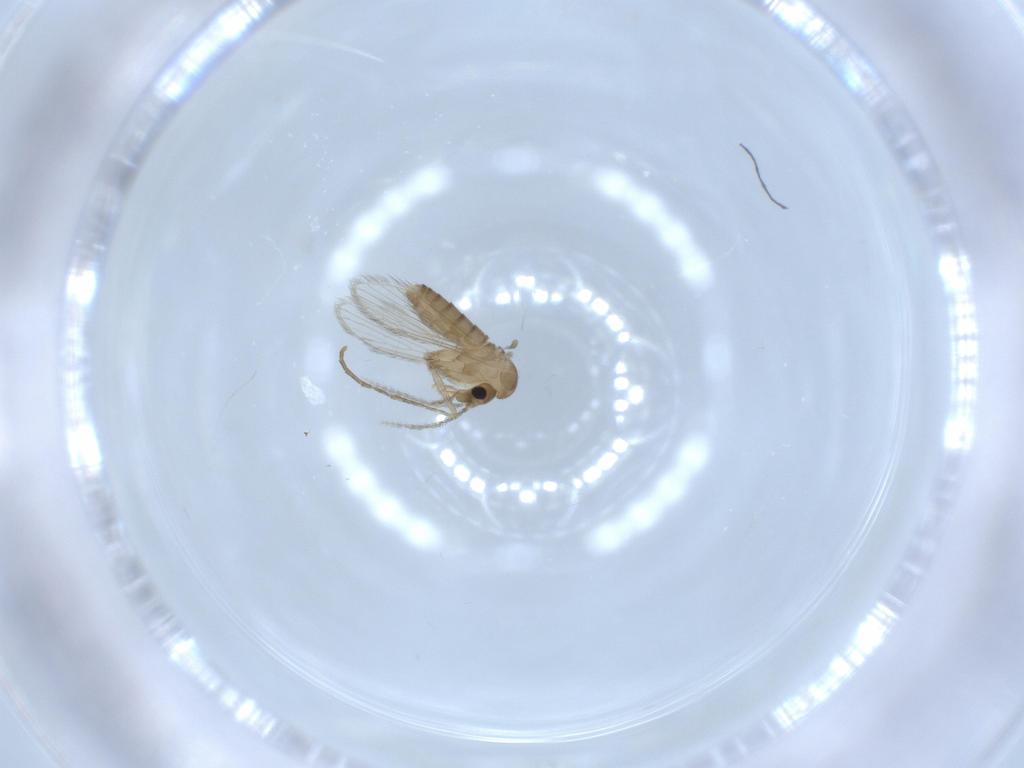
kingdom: Animalia
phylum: Arthropoda
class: Insecta
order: Diptera
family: Psychodidae
